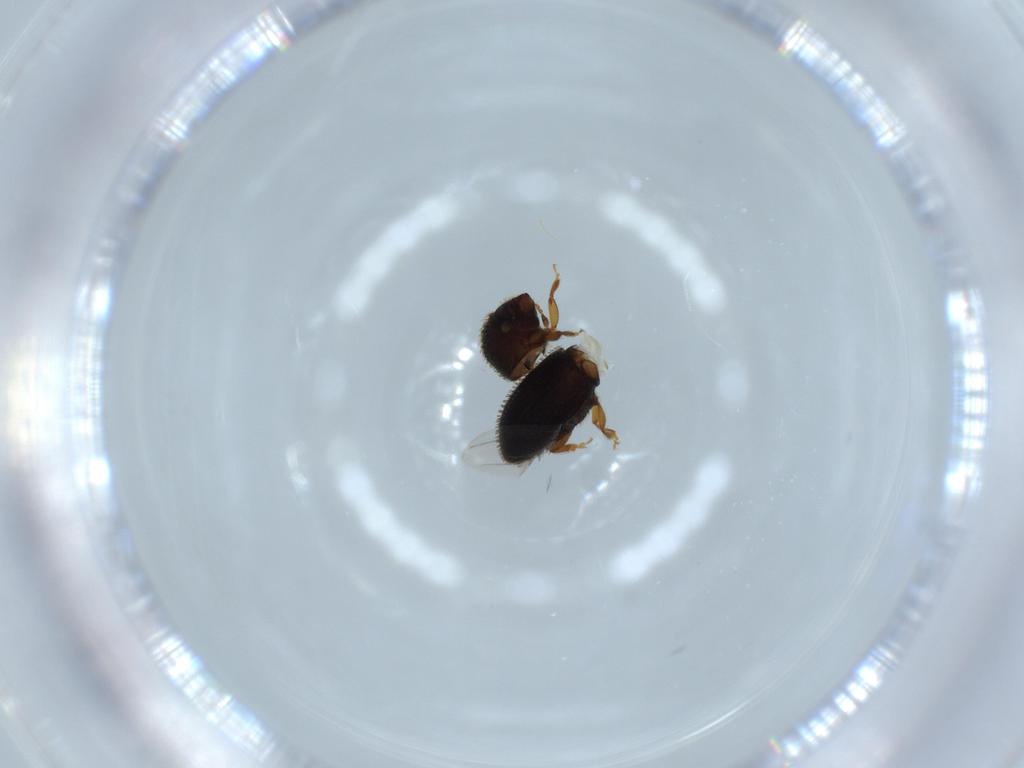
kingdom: Animalia
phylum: Arthropoda
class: Insecta
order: Coleoptera
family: Curculionidae
